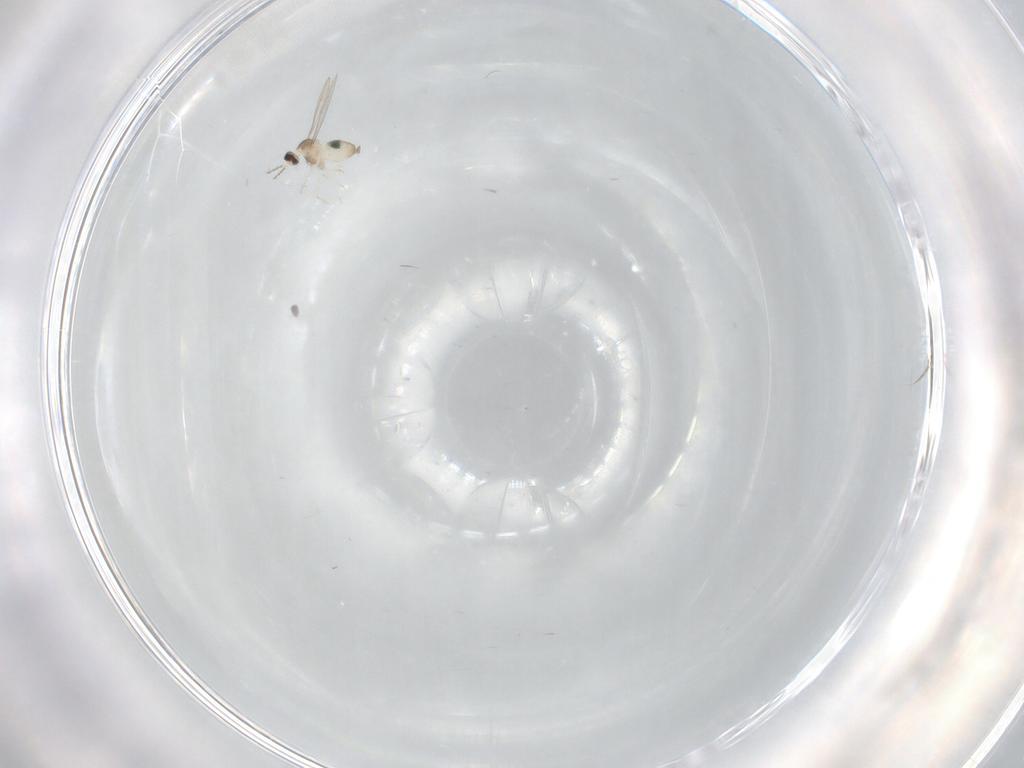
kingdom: Animalia
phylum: Arthropoda
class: Insecta
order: Diptera
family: Cecidomyiidae
